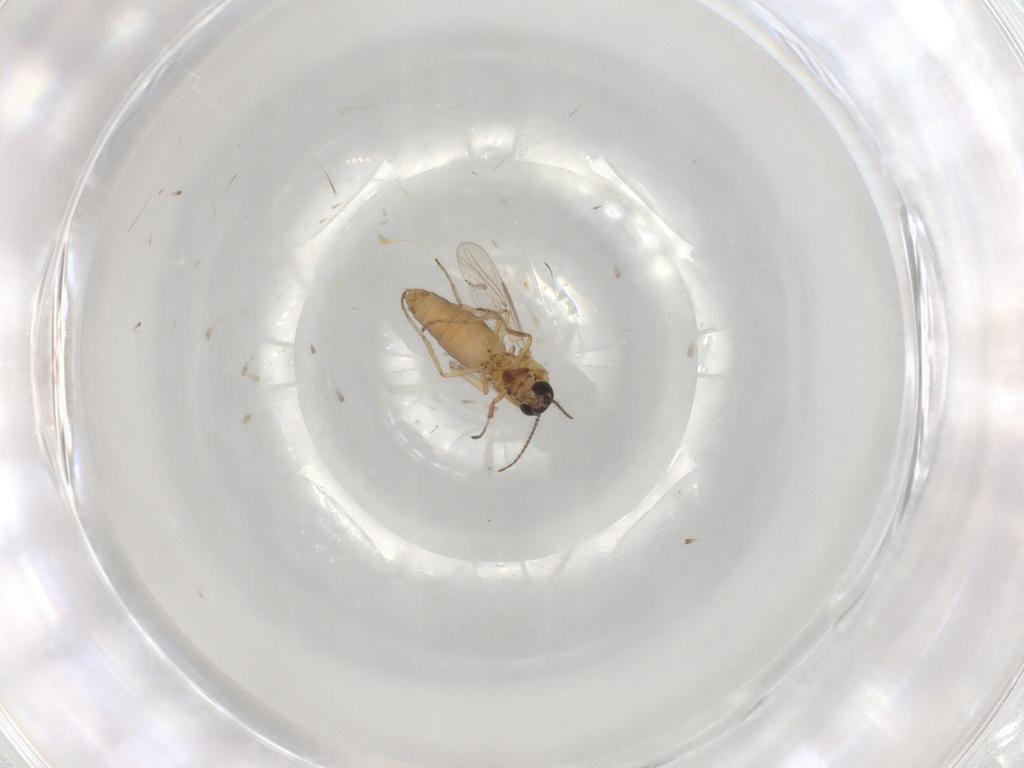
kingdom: Animalia
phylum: Arthropoda
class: Insecta
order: Diptera
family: Ceratopogonidae
